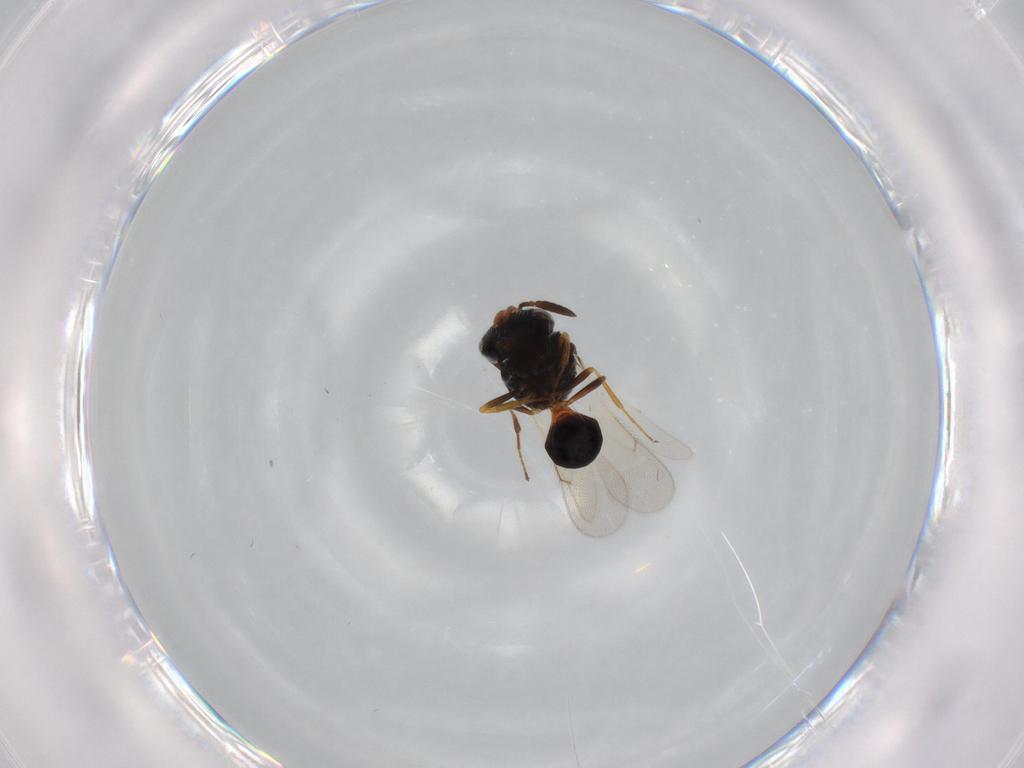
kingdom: Animalia
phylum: Arthropoda
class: Insecta
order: Hymenoptera
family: Scelionidae
